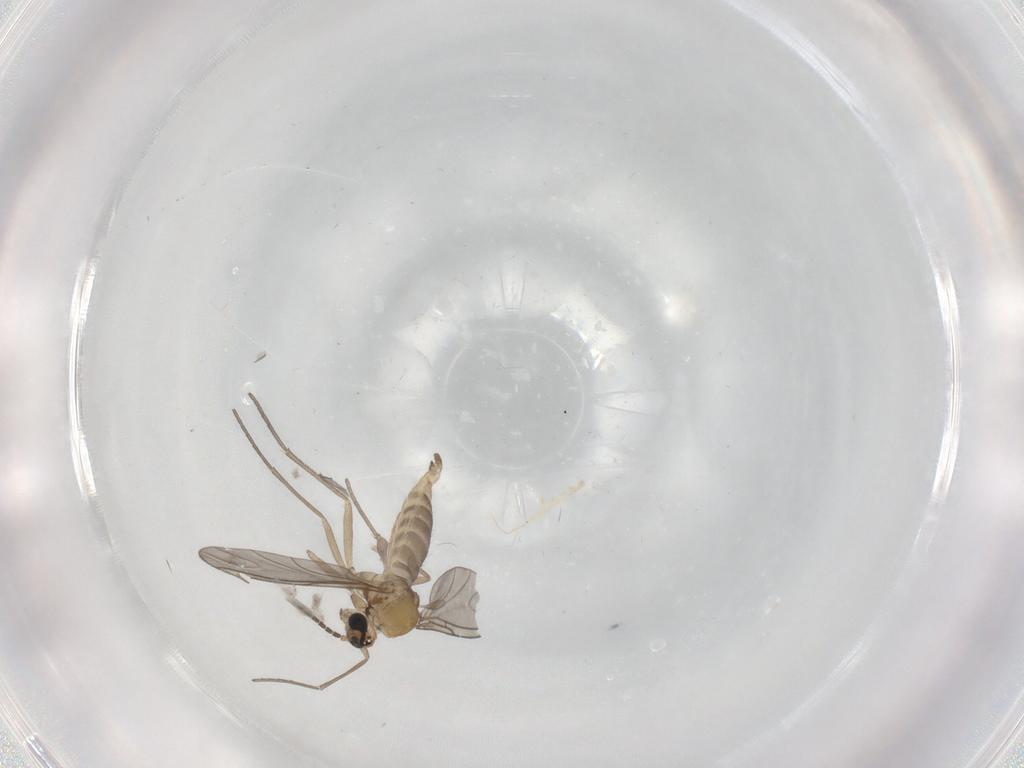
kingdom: Animalia
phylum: Arthropoda
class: Insecta
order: Diptera
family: Sciaridae
